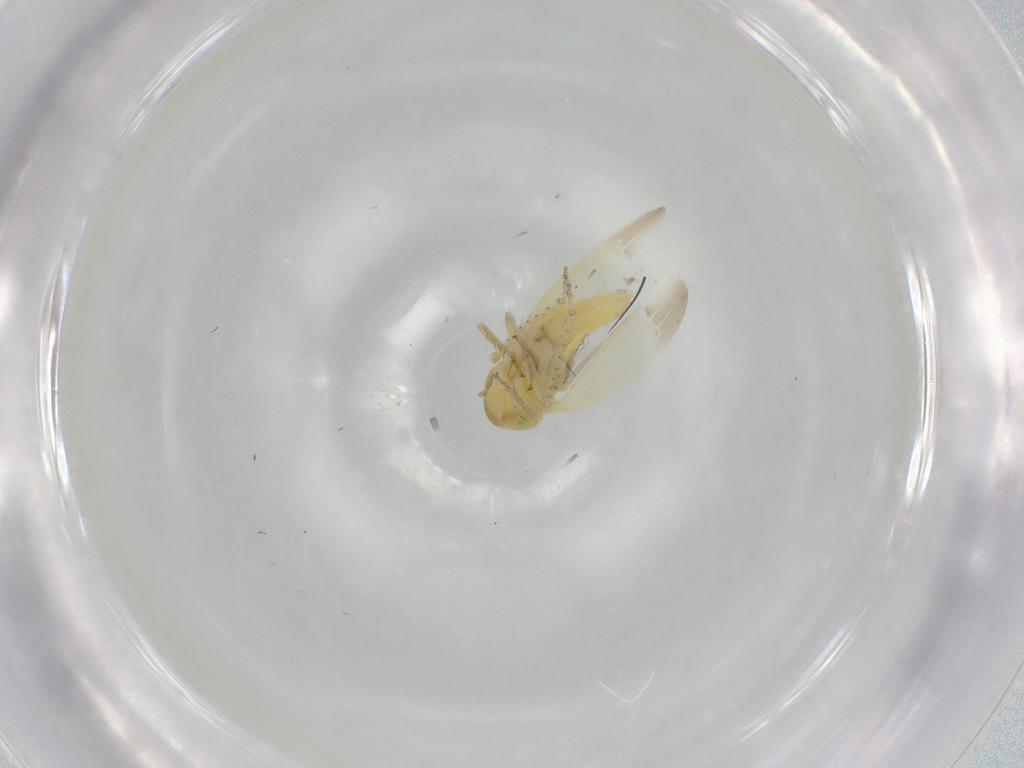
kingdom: Animalia
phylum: Arthropoda
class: Insecta
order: Hemiptera
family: Cicadellidae
